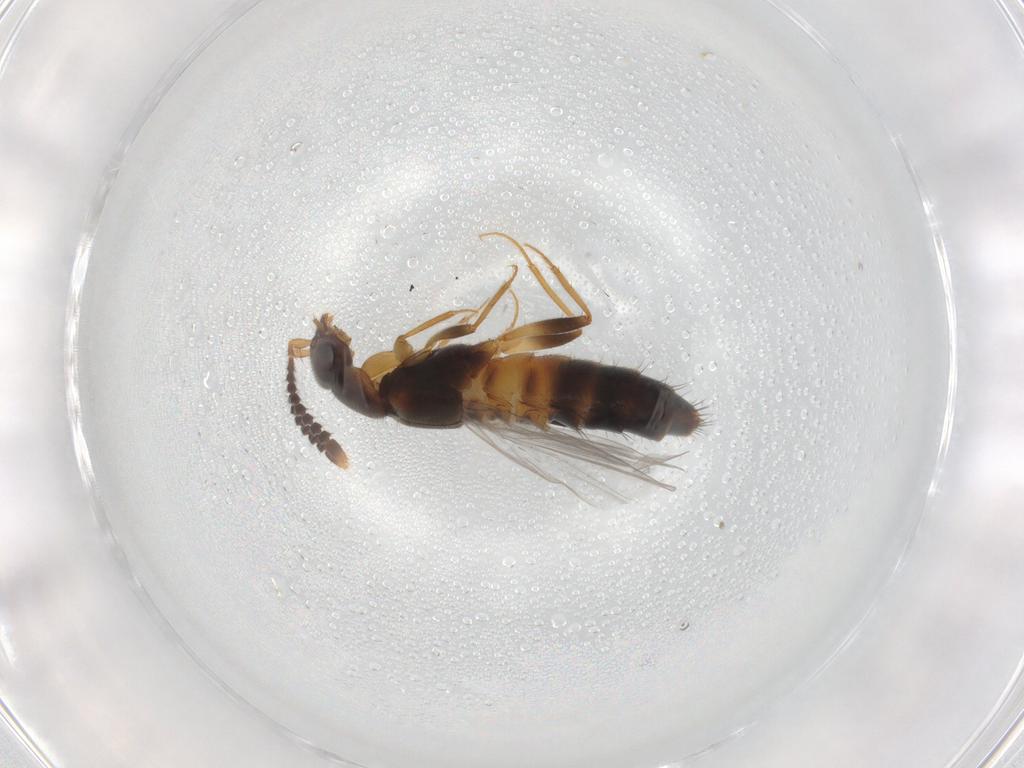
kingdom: Animalia
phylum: Arthropoda
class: Insecta
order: Coleoptera
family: Staphylinidae
